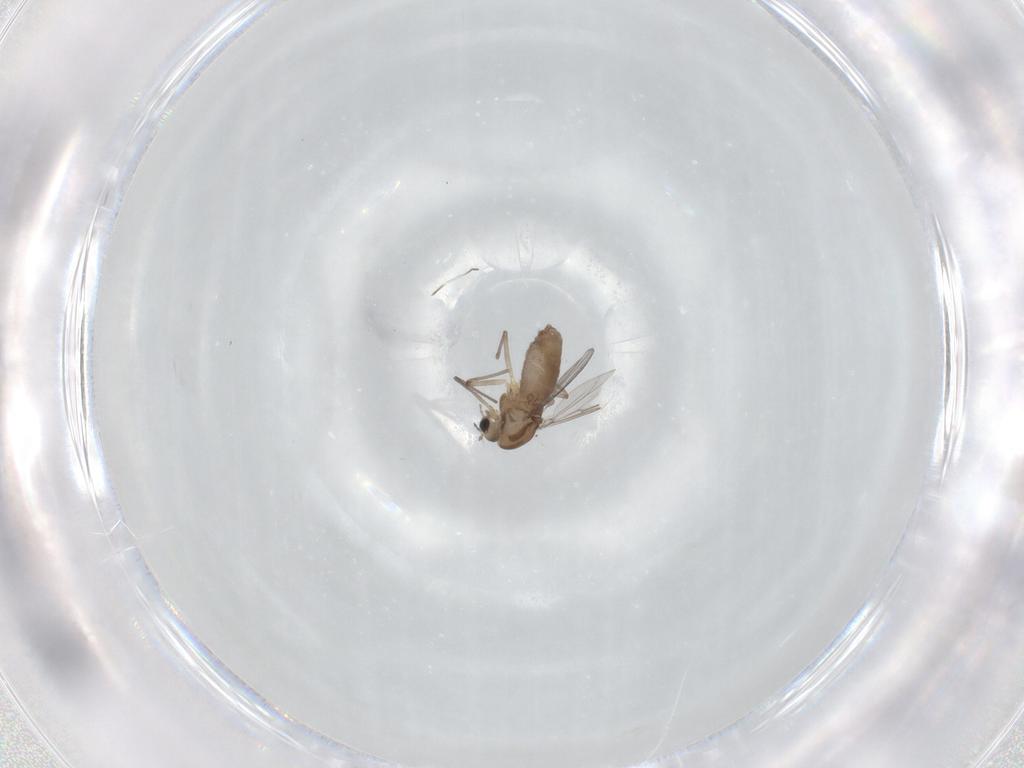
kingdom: Animalia
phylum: Arthropoda
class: Insecta
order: Diptera
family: Chironomidae
